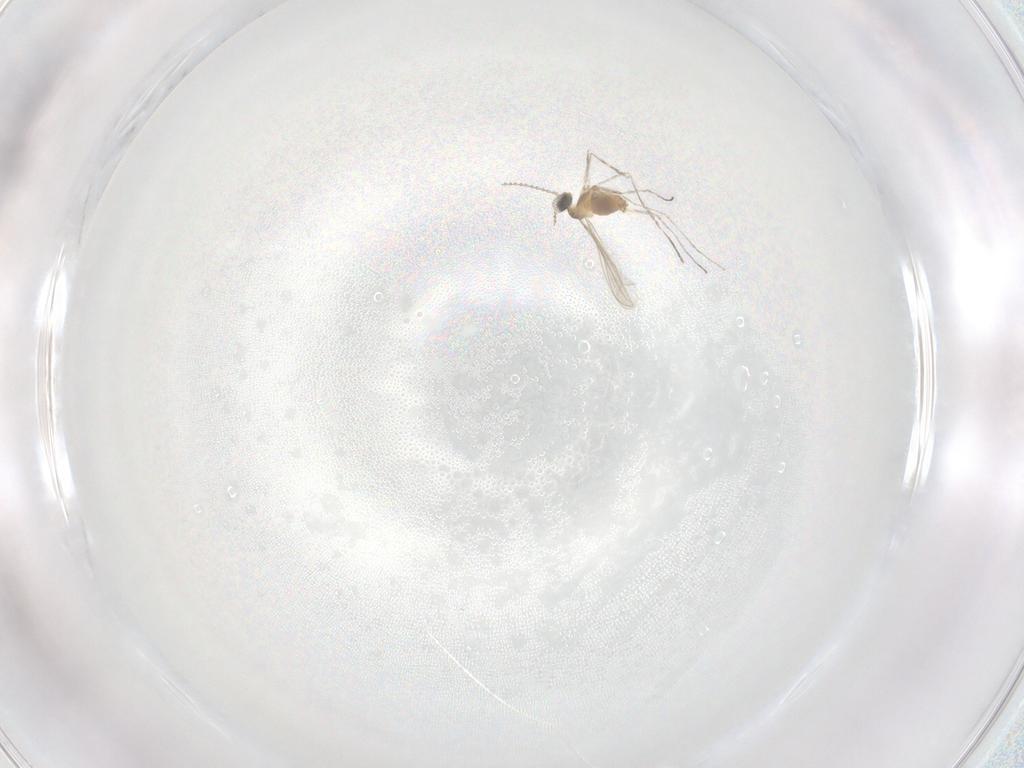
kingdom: Animalia
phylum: Arthropoda
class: Insecta
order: Diptera
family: Cecidomyiidae
